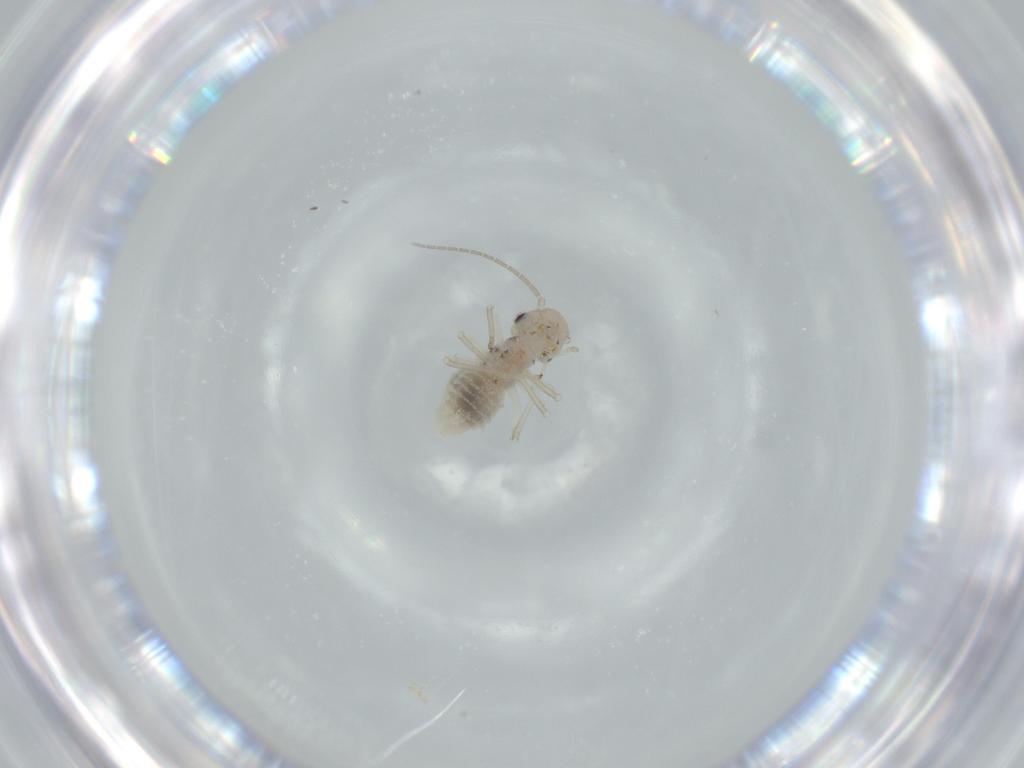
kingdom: Animalia
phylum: Arthropoda
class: Insecta
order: Psocodea
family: Amphipsocidae
